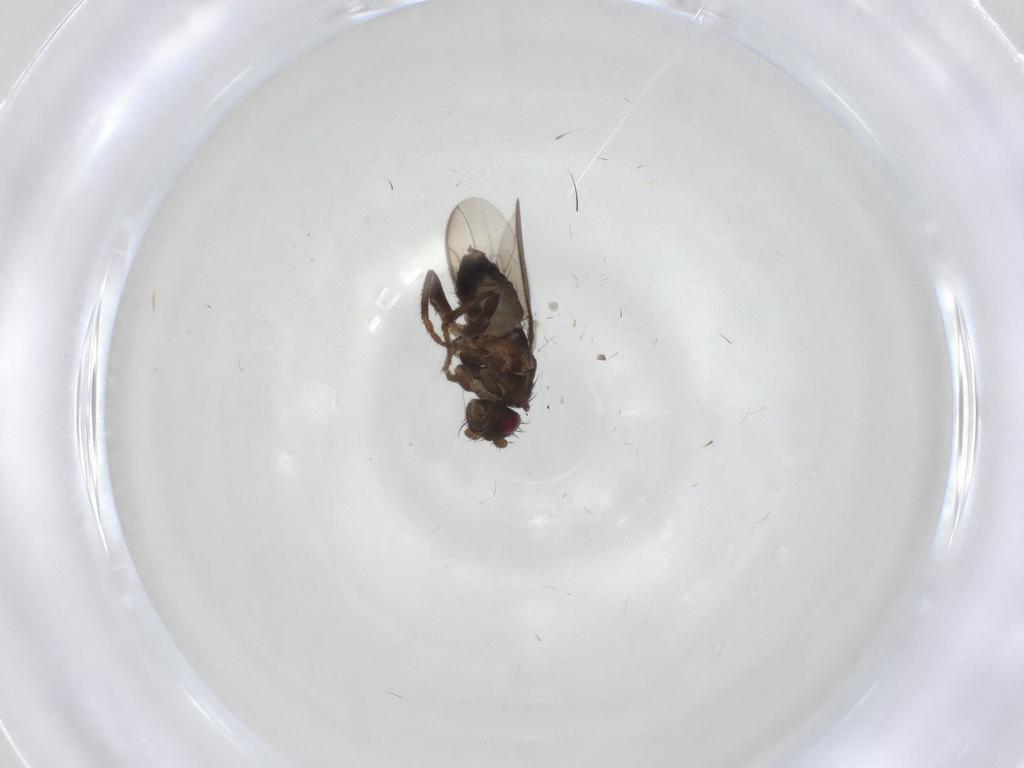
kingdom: Animalia
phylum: Arthropoda
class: Insecta
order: Diptera
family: Sphaeroceridae
